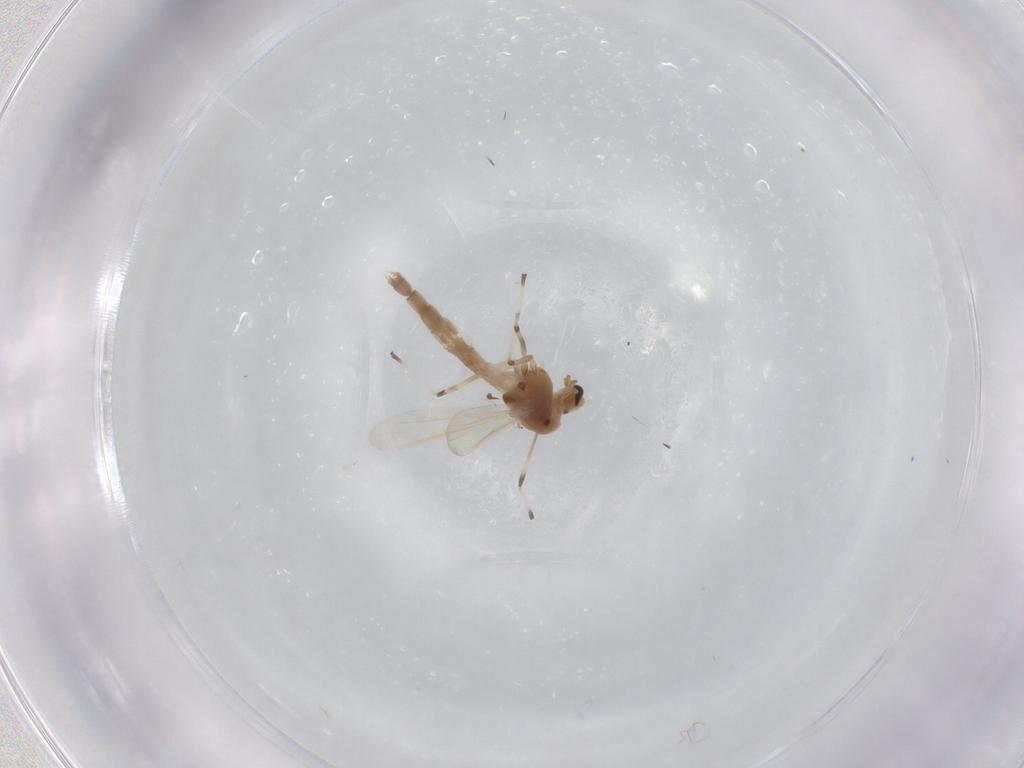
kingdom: Animalia
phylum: Arthropoda
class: Insecta
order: Diptera
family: Chironomidae
